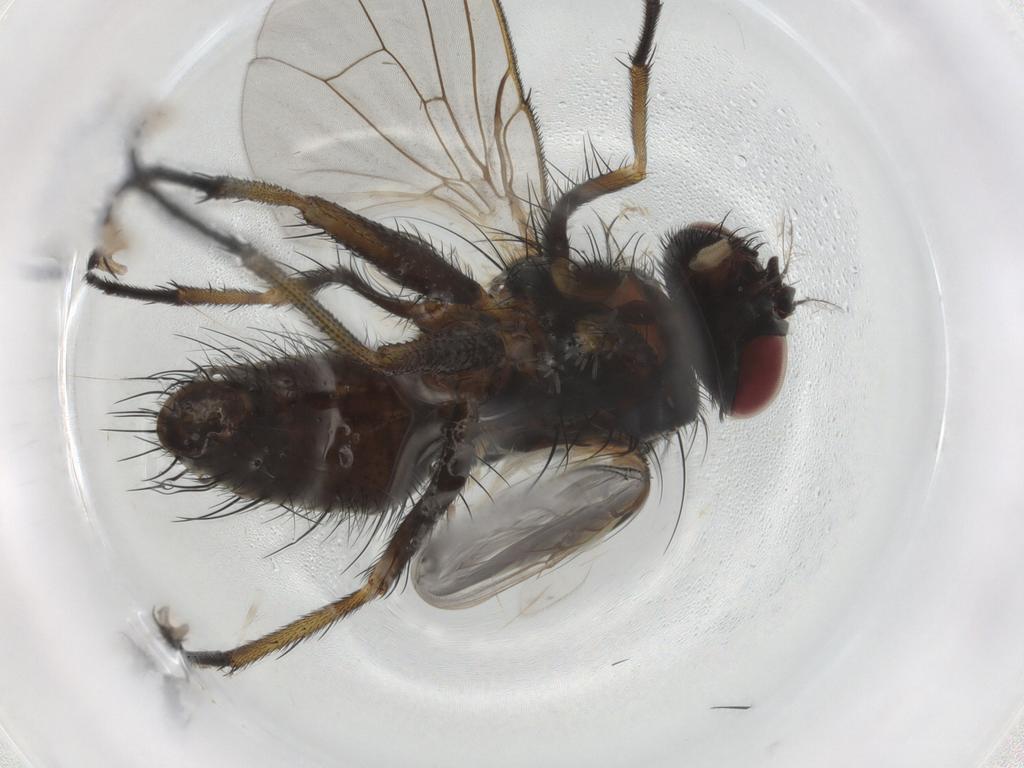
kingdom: Animalia
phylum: Arthropoda
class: Insecta
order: Diptera
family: Muscidae
